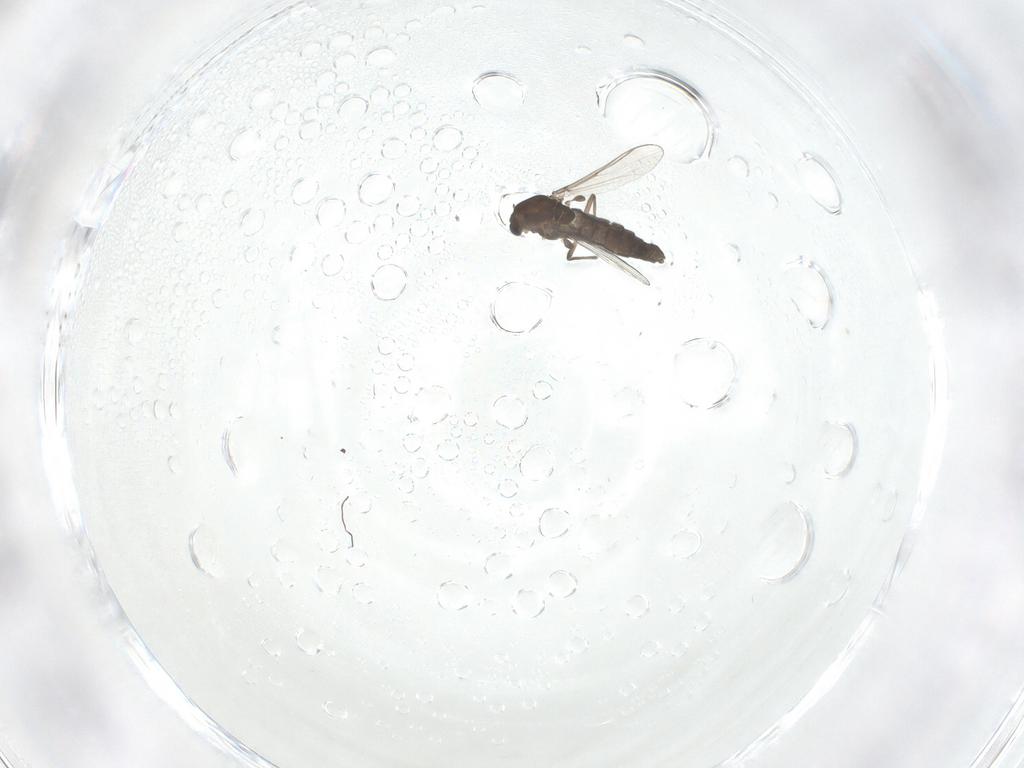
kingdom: Animalia
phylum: Arthropoda
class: Insecta
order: Diptera
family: Chironomidae
